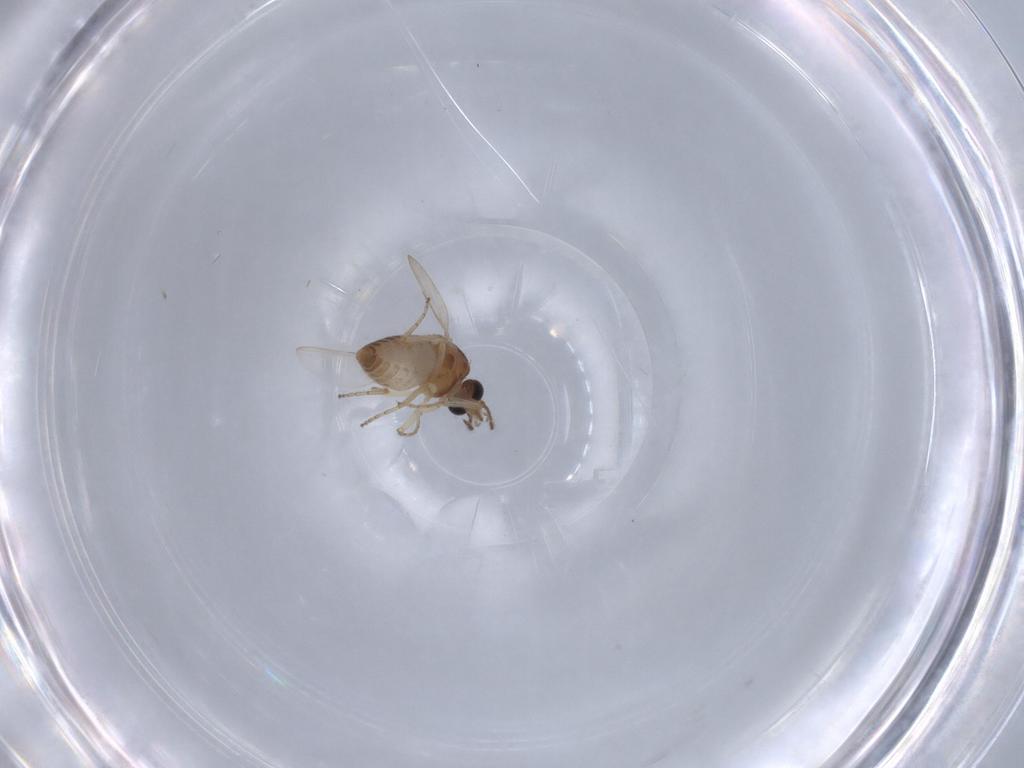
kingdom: Animalia
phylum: Arthropoda
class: Insecta
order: Diptera
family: Ceratopogonidae
